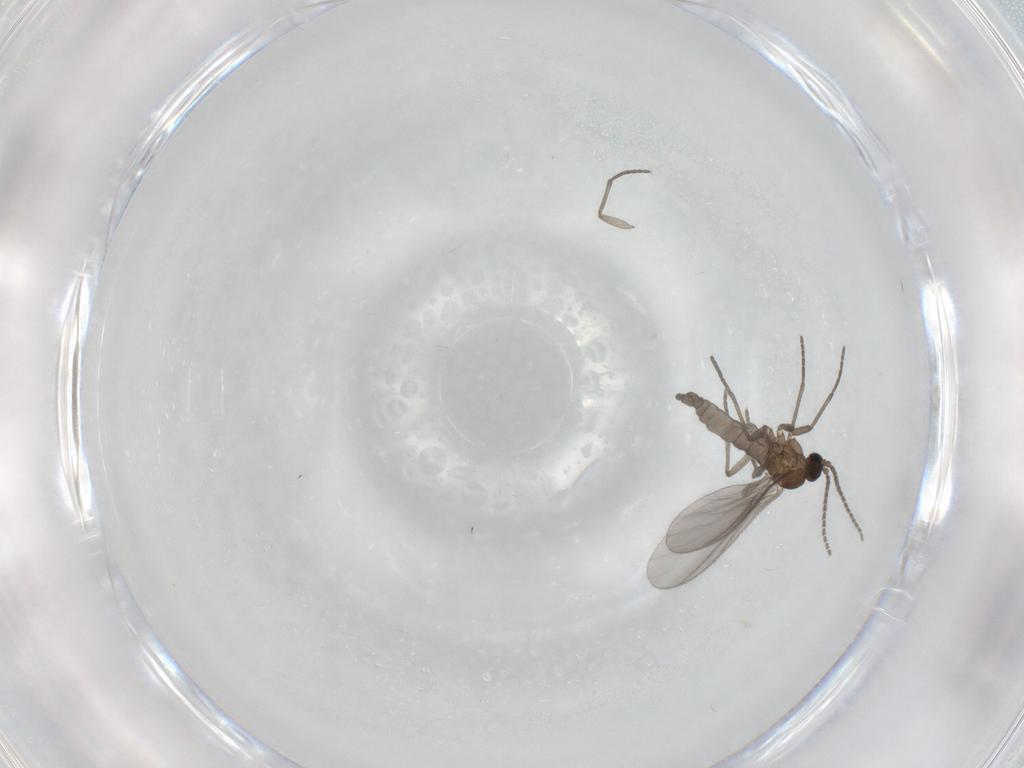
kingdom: Animalia
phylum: Arthropoda
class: Insecta
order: Diptera
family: Sciaridae
